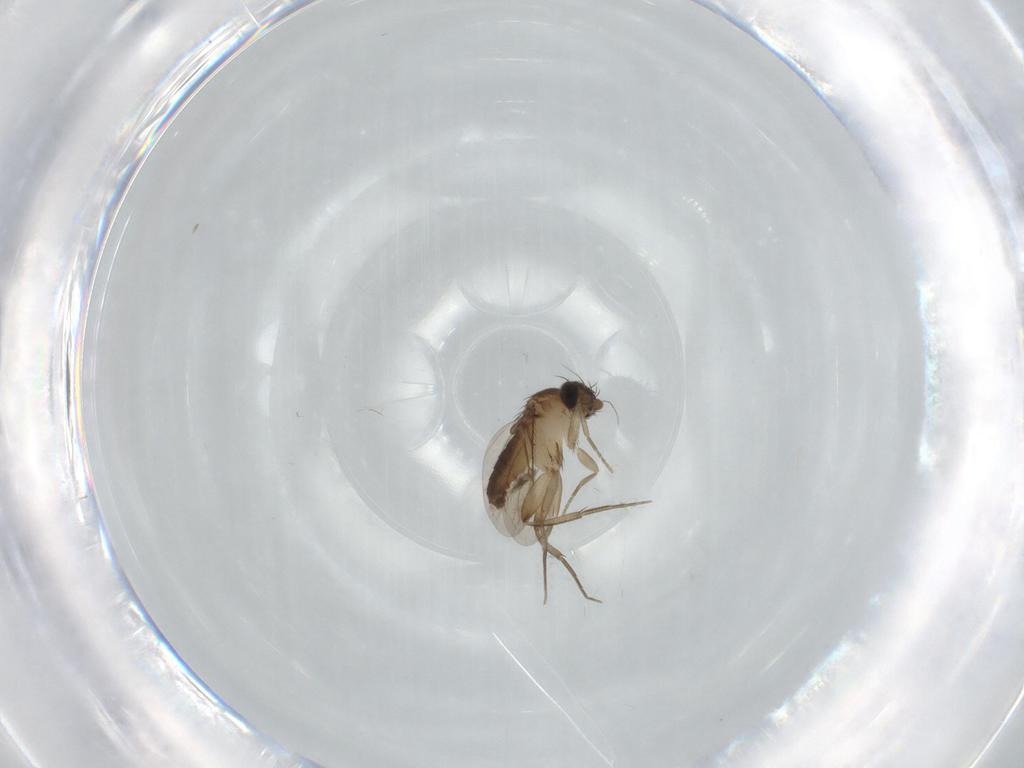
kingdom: Animalia
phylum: Arthropoda
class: Insecta
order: Diptera
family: Phoridae
